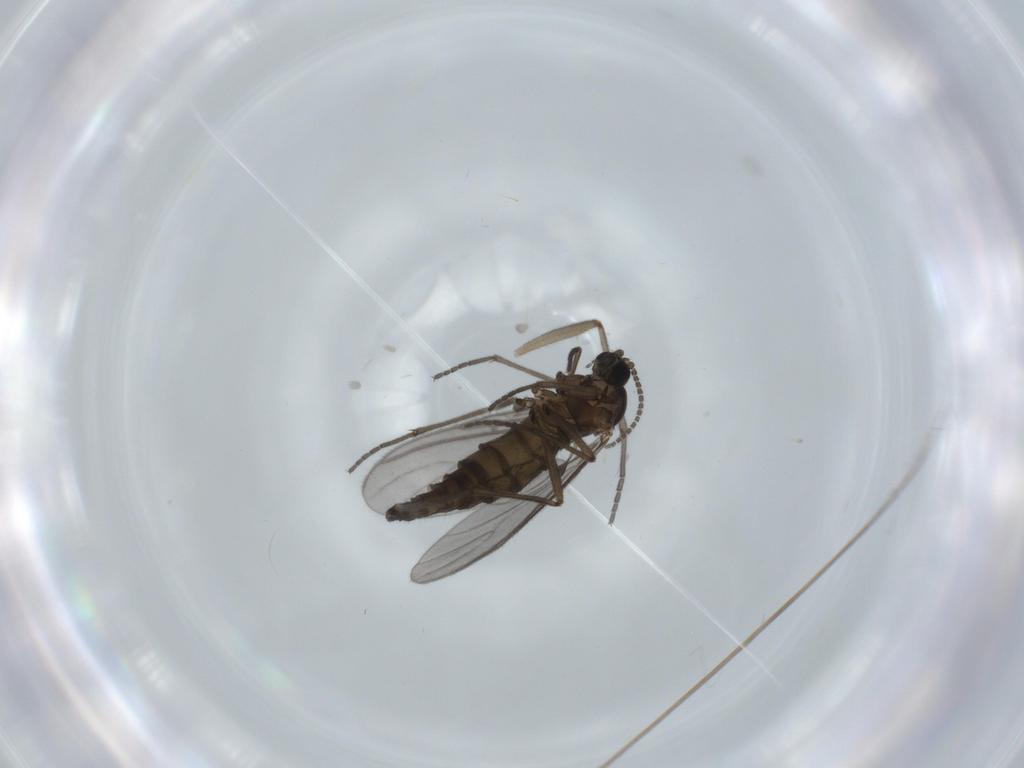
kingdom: Animalia
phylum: Arthropoda
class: Insecta
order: Diptera
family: Sciaridae
